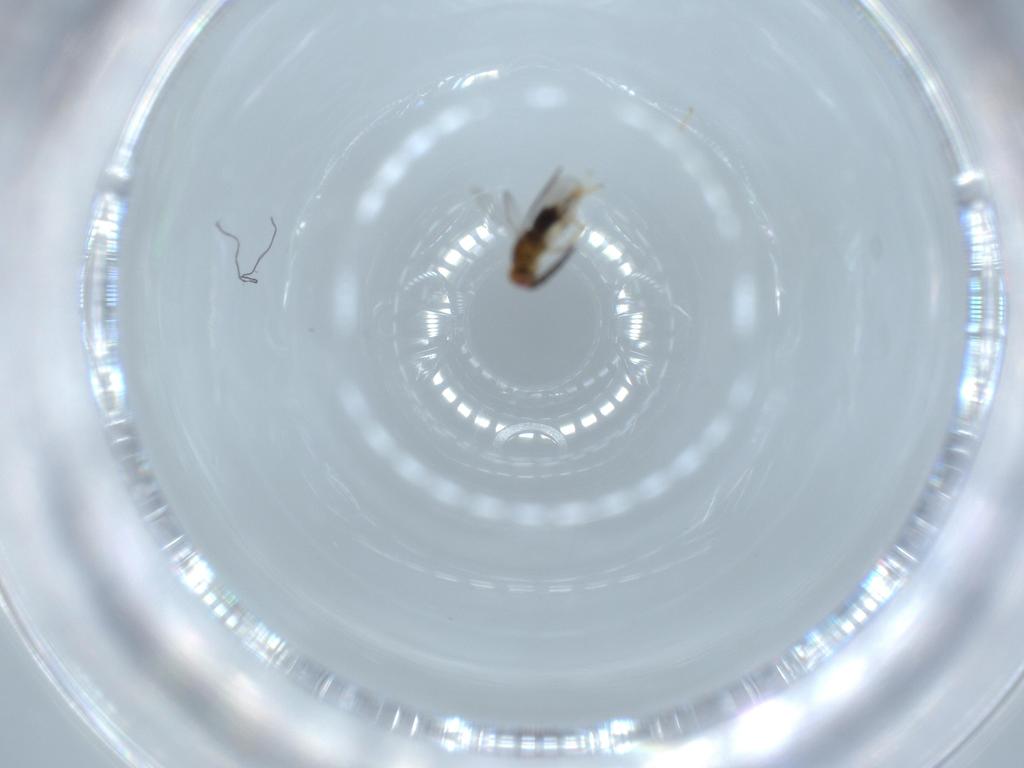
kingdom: Animalia
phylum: Arthropoda
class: Insecta
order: Hymenoptera
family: Aphelinidae
